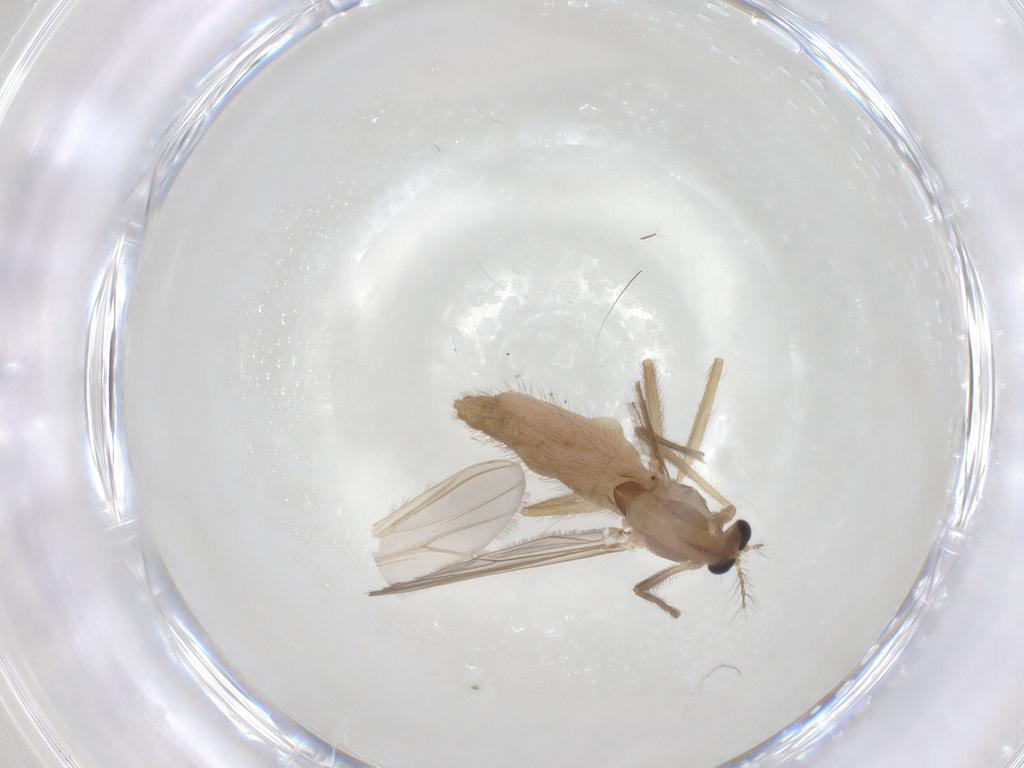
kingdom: Animalia
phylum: Arthropoda
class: Insecta
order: Diptera
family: Chironomidae
